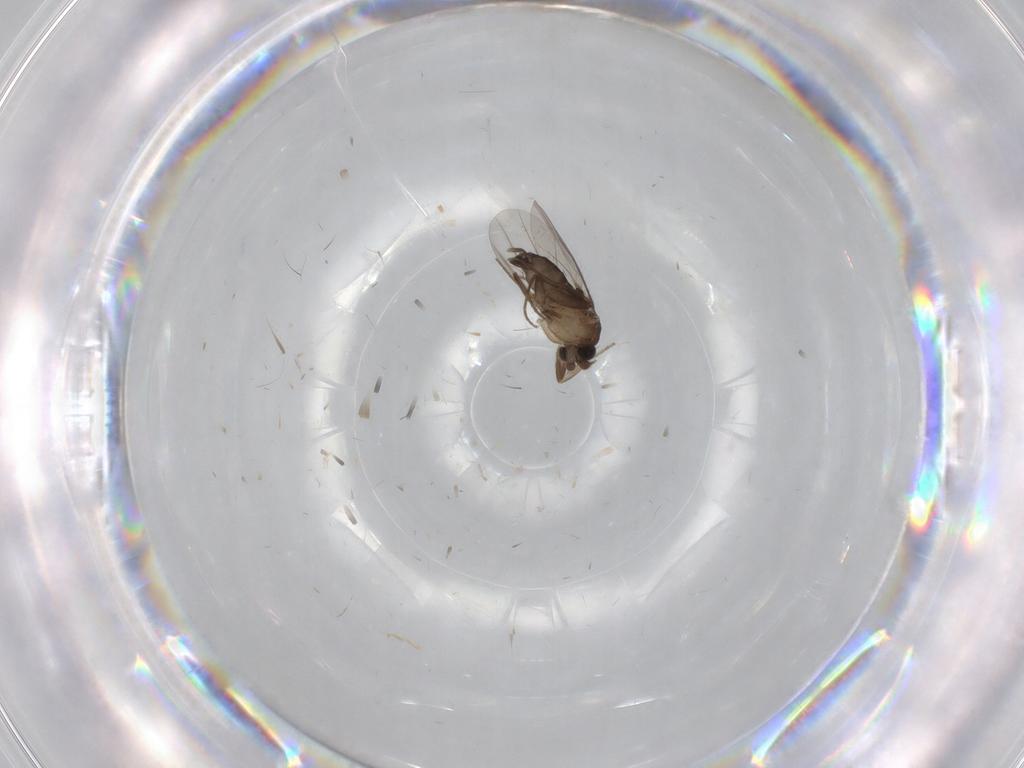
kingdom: Animalia
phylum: Arthropoda
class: Insecta
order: Diptera
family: Phoridae
